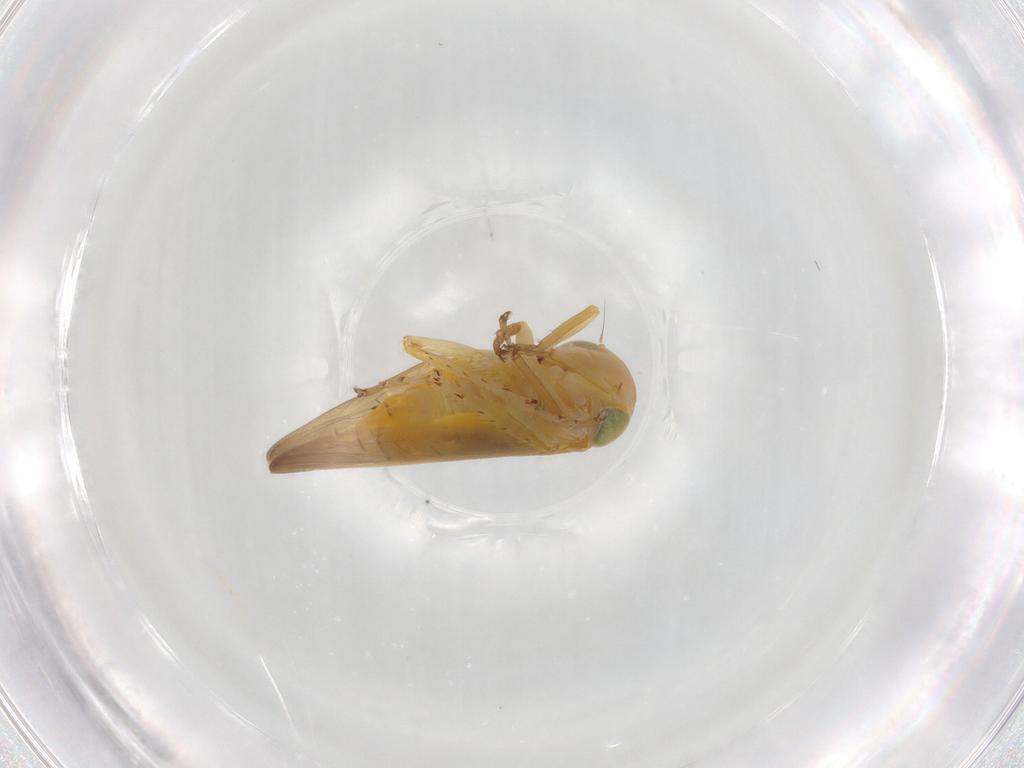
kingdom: Animalia
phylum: Arthropoda
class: Insecta
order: Hemiptera
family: Cicadellidae
